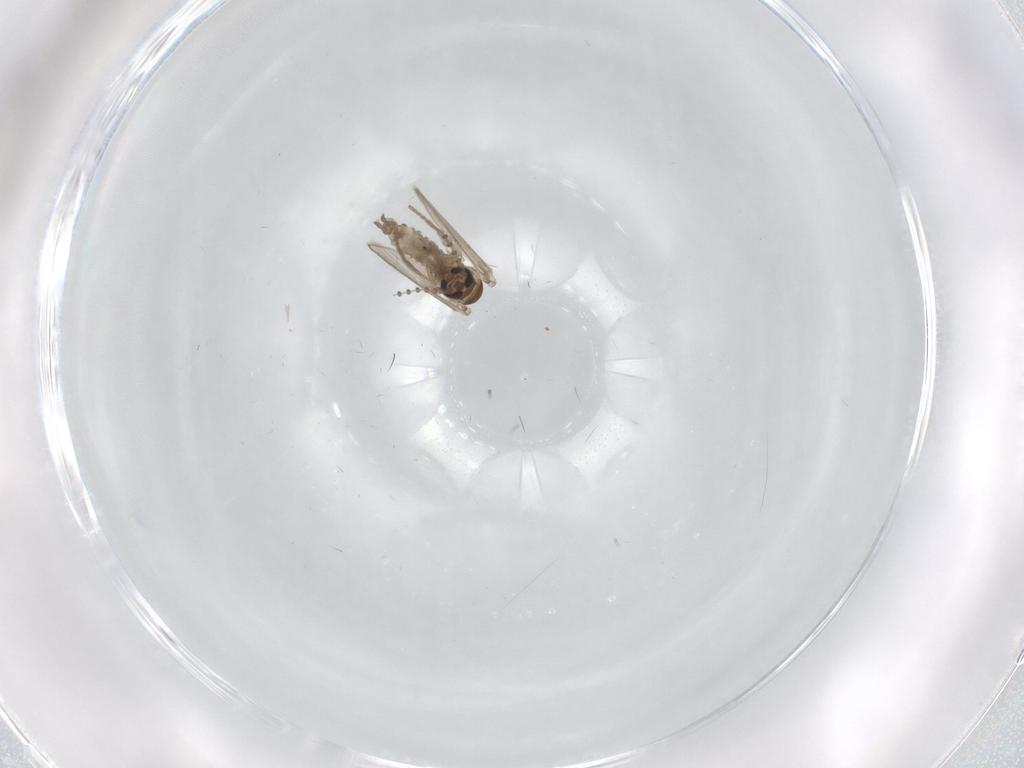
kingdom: Animalia
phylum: Arthropoda
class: Insecta
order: Diptera
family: Psychodidae
